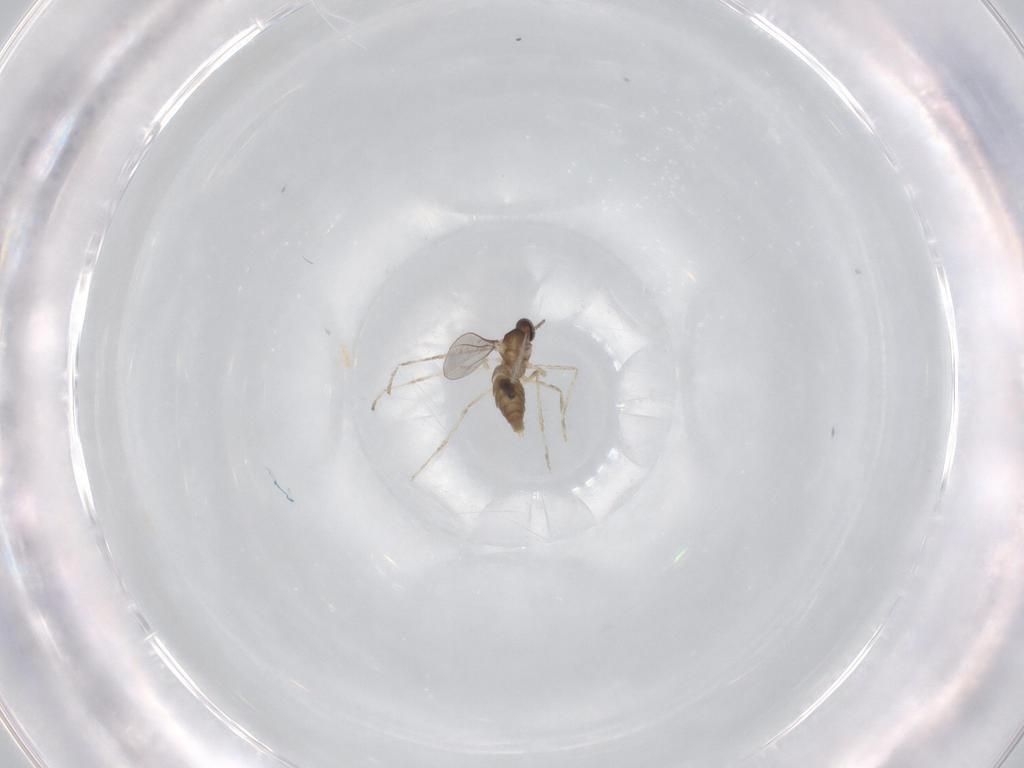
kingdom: Animalia
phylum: Arthropoda
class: Insecta
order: Diptera
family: Cecidomyiidae
